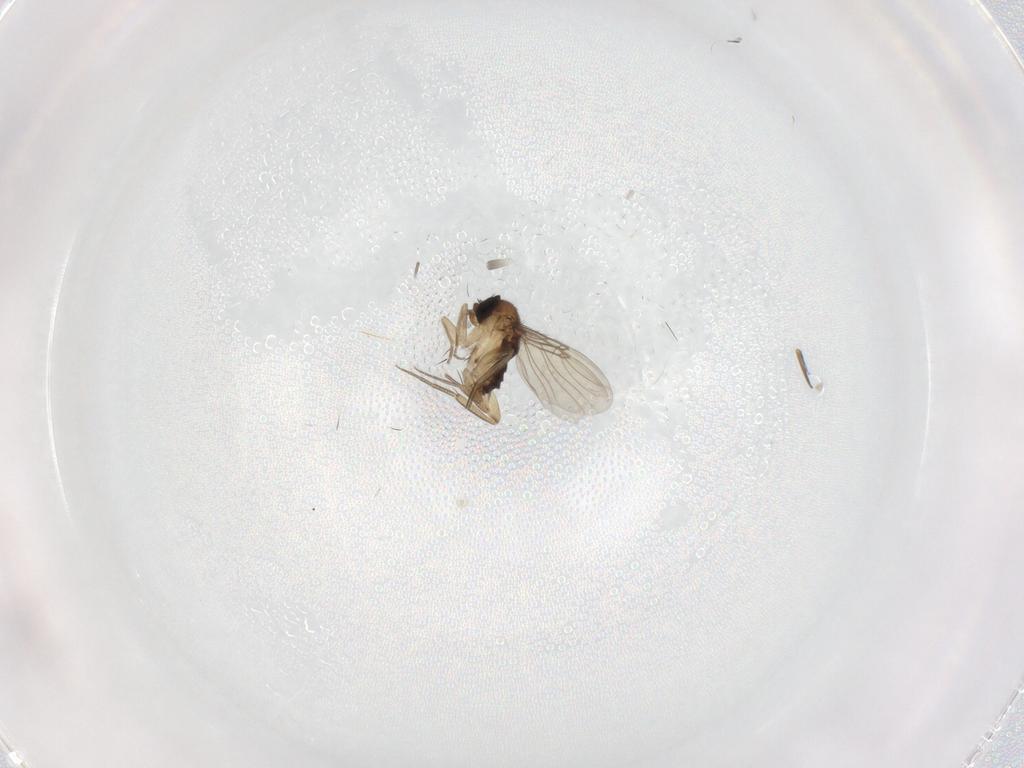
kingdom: Animalia
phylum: Arthropoda
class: Insecta
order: Diptera
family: Phoridae
